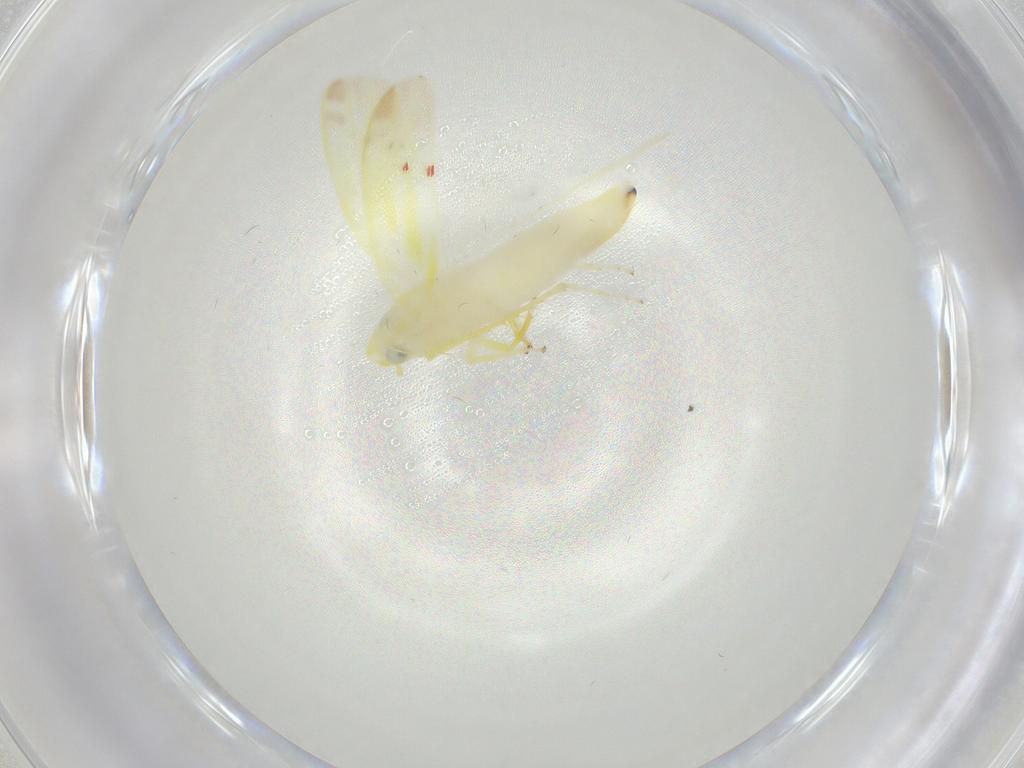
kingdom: Animalia
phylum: Arthropoda
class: Insecta
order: Hemiptera
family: Cicadellidae
